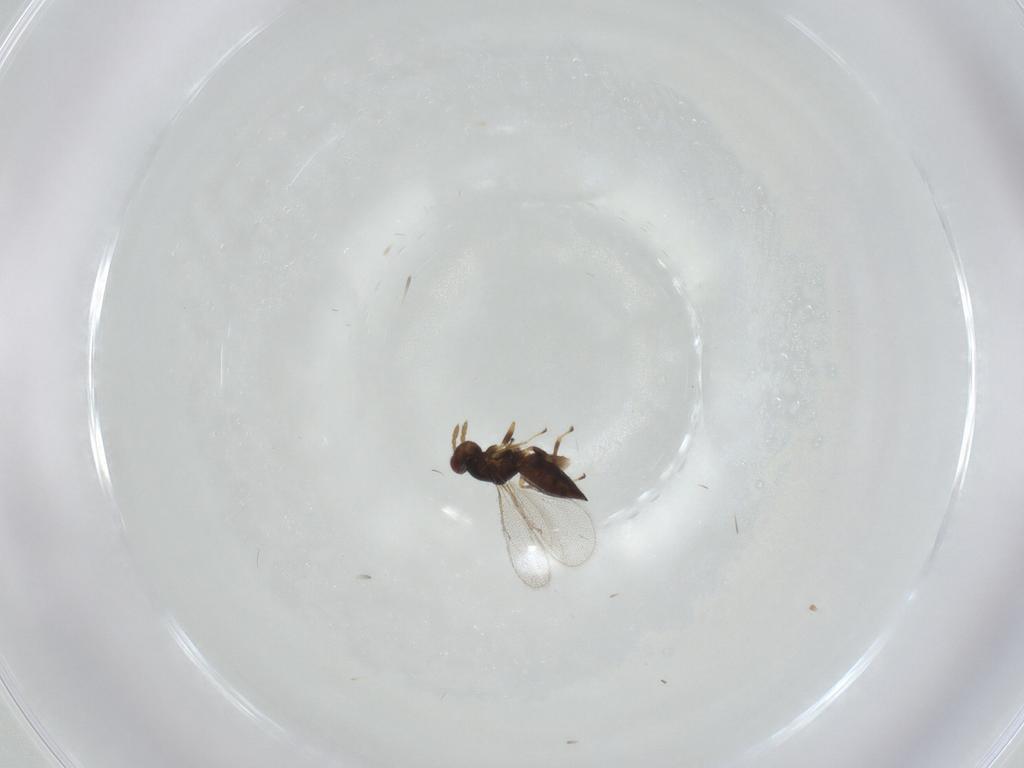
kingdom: Animalia
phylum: Arthropoda
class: Insecta
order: Hymenoptera
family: Eulophidae
